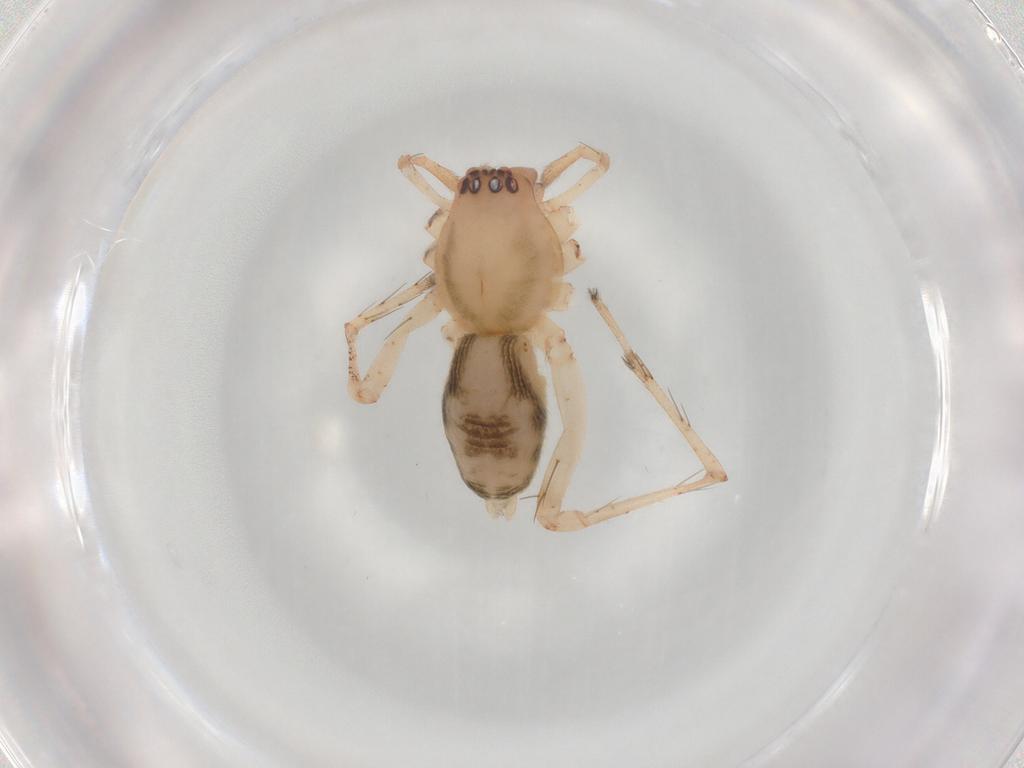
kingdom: Animalia
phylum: Arthropoda
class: Arachnida
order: Araneae
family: Anyphaenidae
